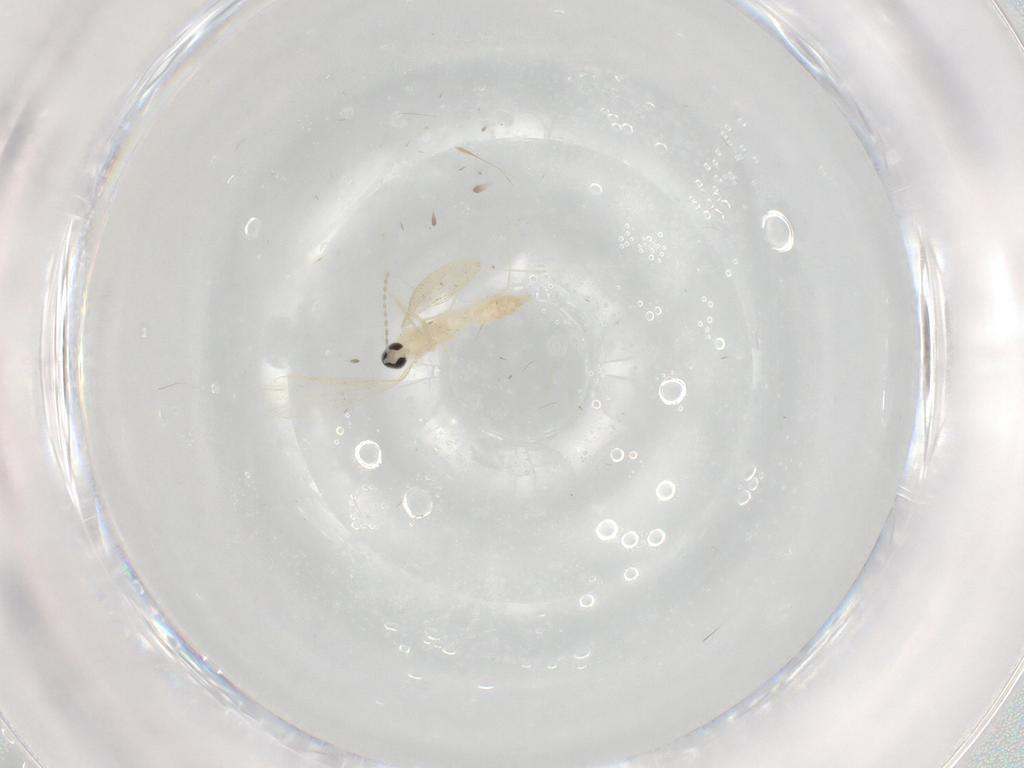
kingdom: Animalia
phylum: Arthropoda
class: Insecta
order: Diptera
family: Cecidomyiidae
